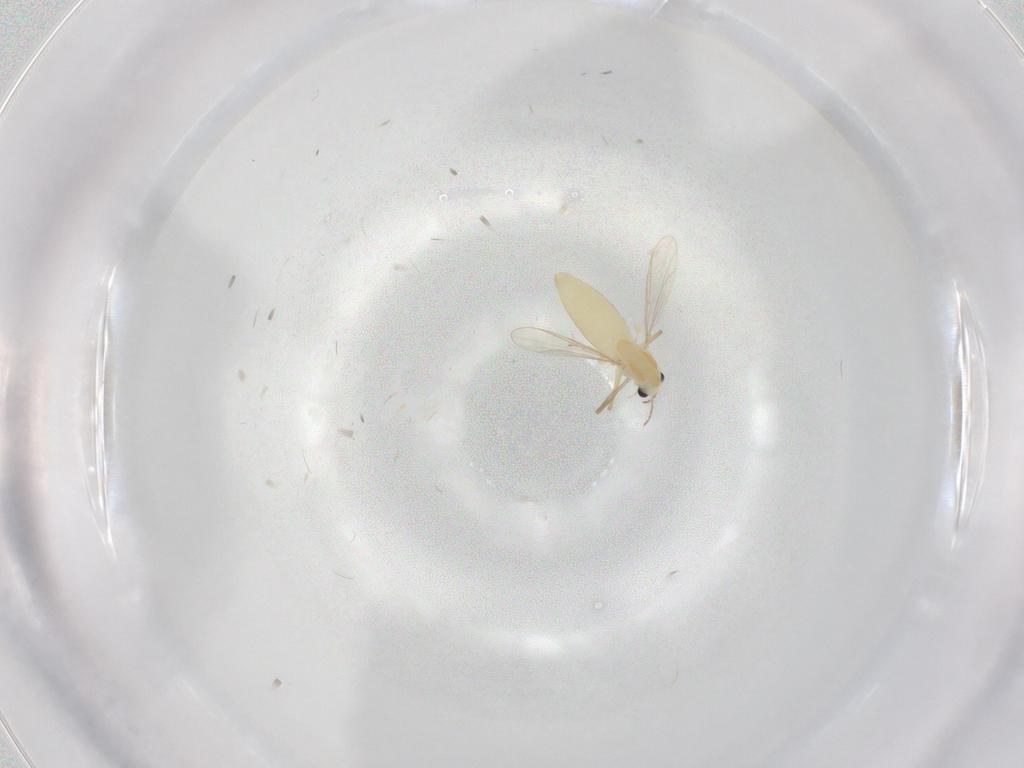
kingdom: Animalia
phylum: Arthropoda
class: Insecta
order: Diptera
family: Chironomidae
